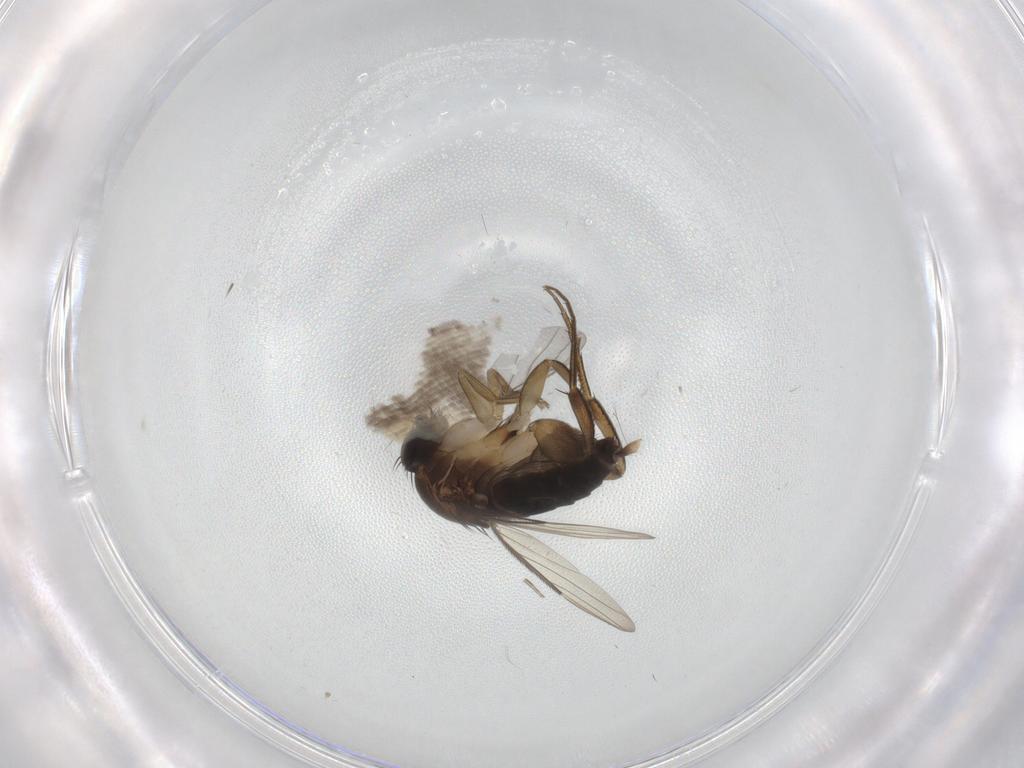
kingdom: Animalia
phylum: Arthropoda
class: Insecta
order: Diptera
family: Phoridae
